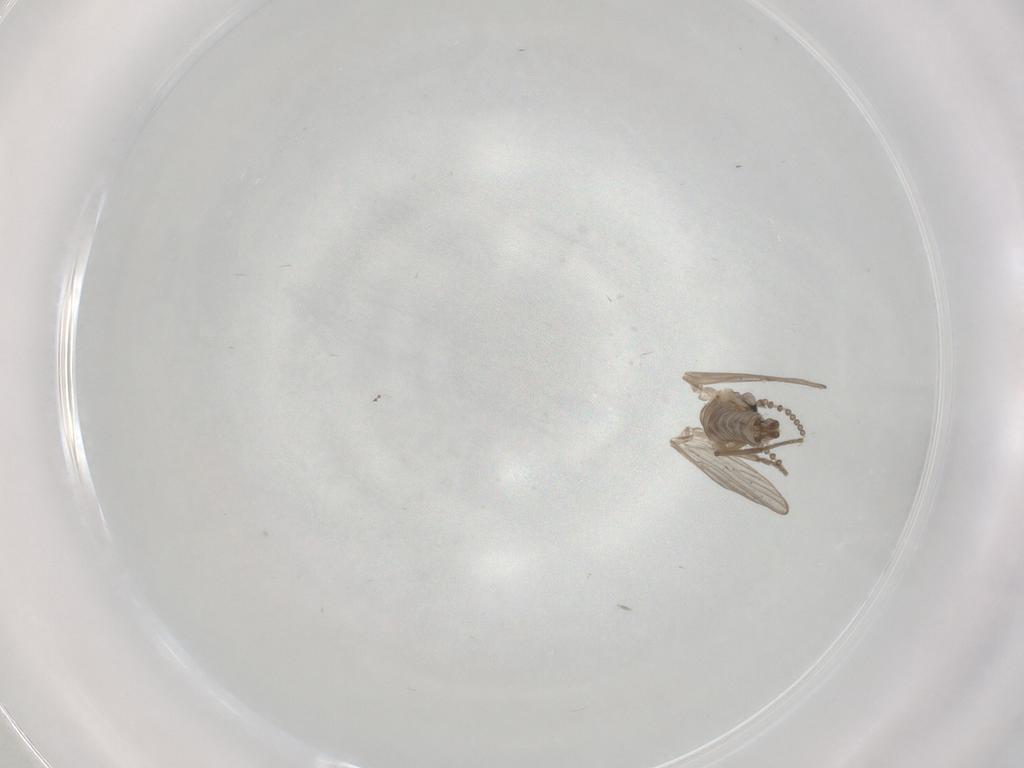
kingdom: Animalia
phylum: Arthropoda
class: Insecta
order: Diptera
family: Psychodidae
